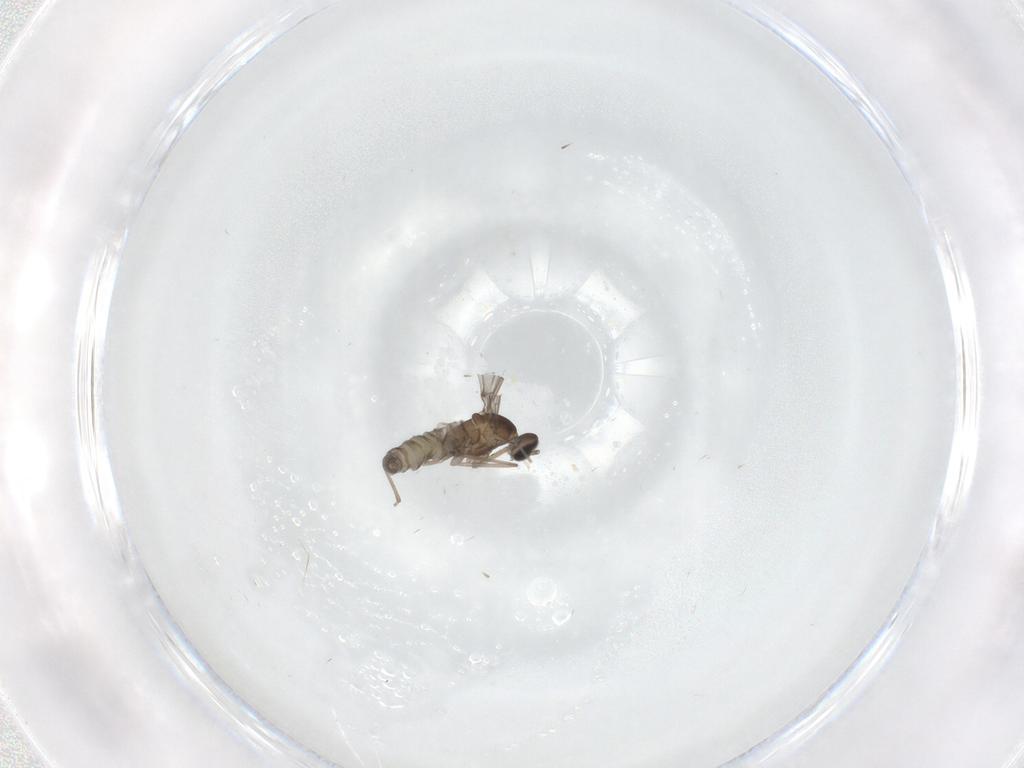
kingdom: Animalia
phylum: Arthropoda
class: Insecta
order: Diptera
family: Cecidomyiidae
